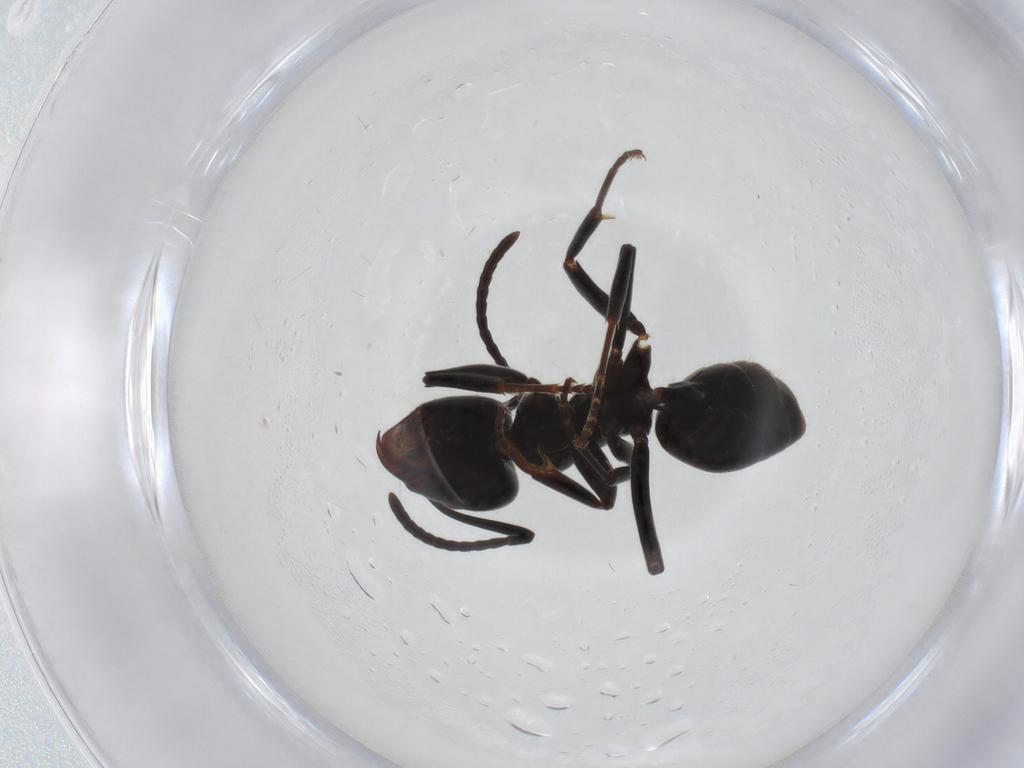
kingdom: Animalia
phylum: Arthropoda
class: Insecta
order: Hymenoptera
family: Formicidae
